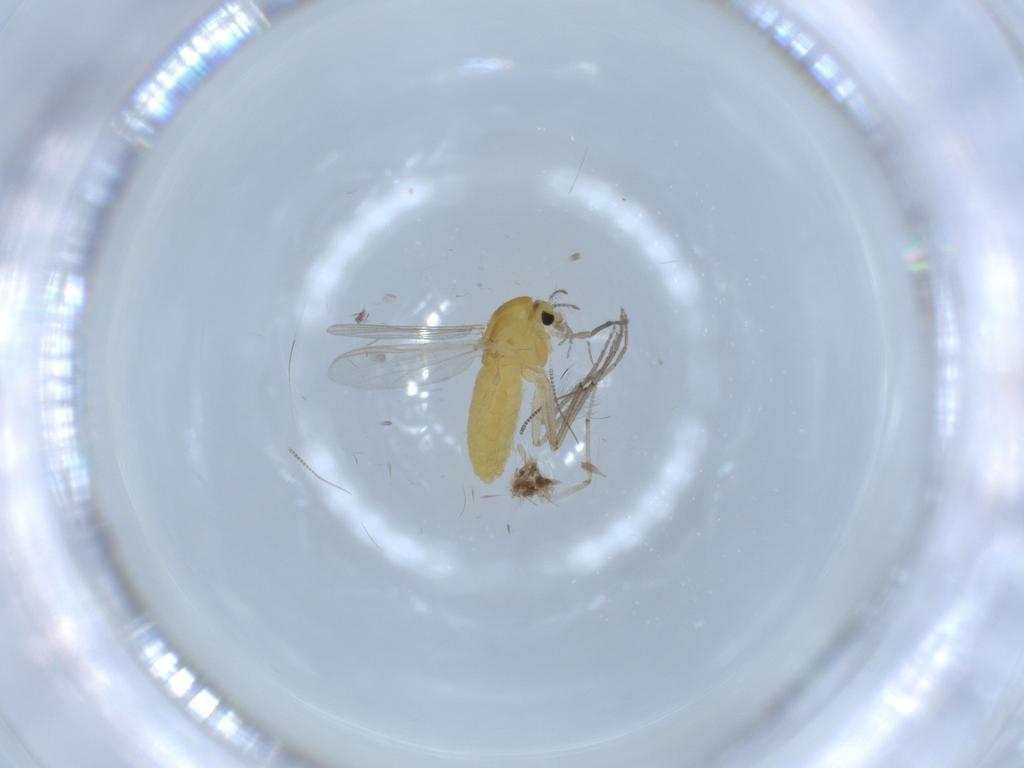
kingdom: Animalia
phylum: Arthropoda
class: Insecta
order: Diptera
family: Chironomidae
